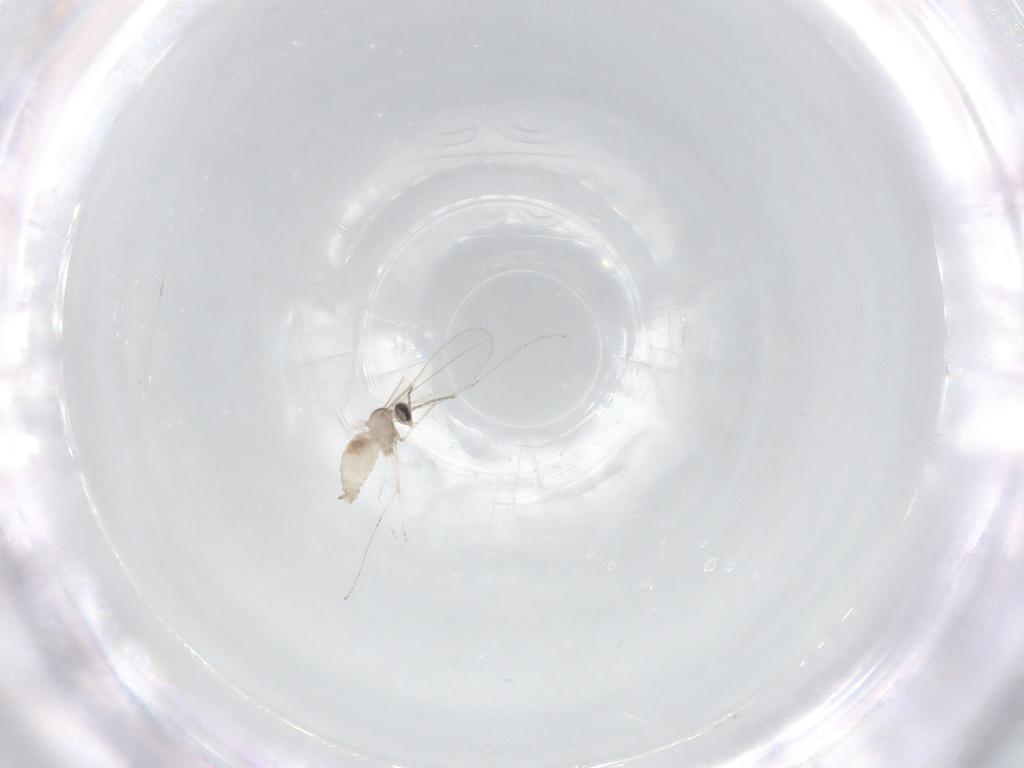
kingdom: Animalia
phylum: Arthropoda
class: Insecta
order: Diptera
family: Cecidomyiidae
